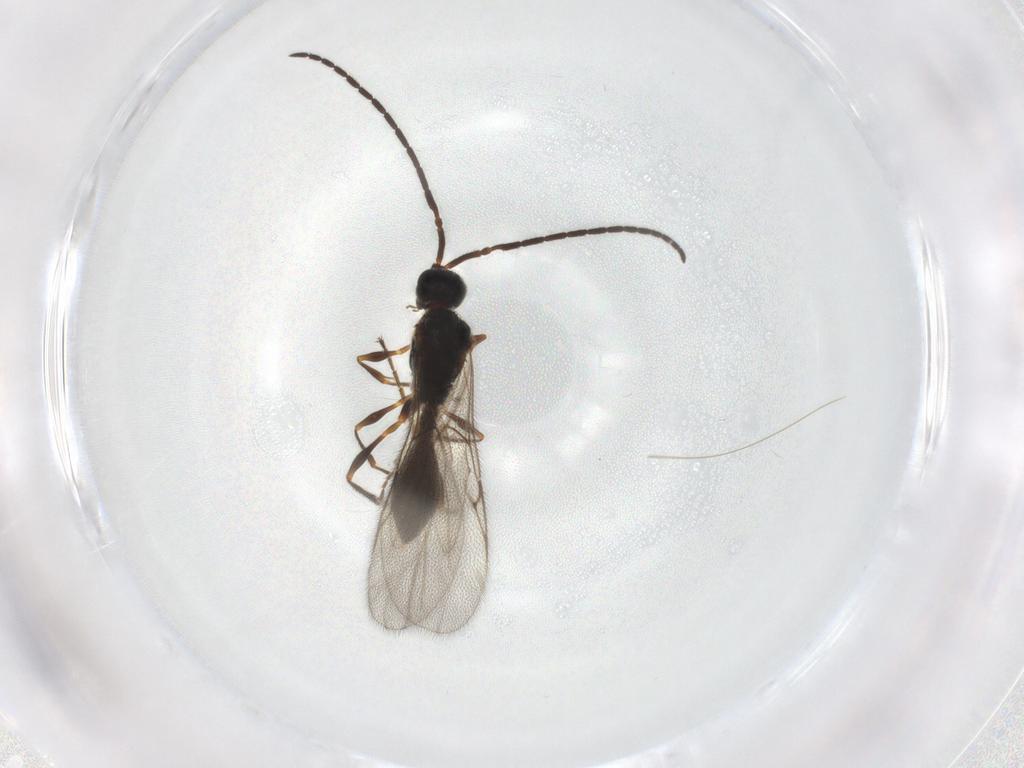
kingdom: Animalia
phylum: Arthropoda
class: Insecta
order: Hymenoptera
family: Diapriidae
